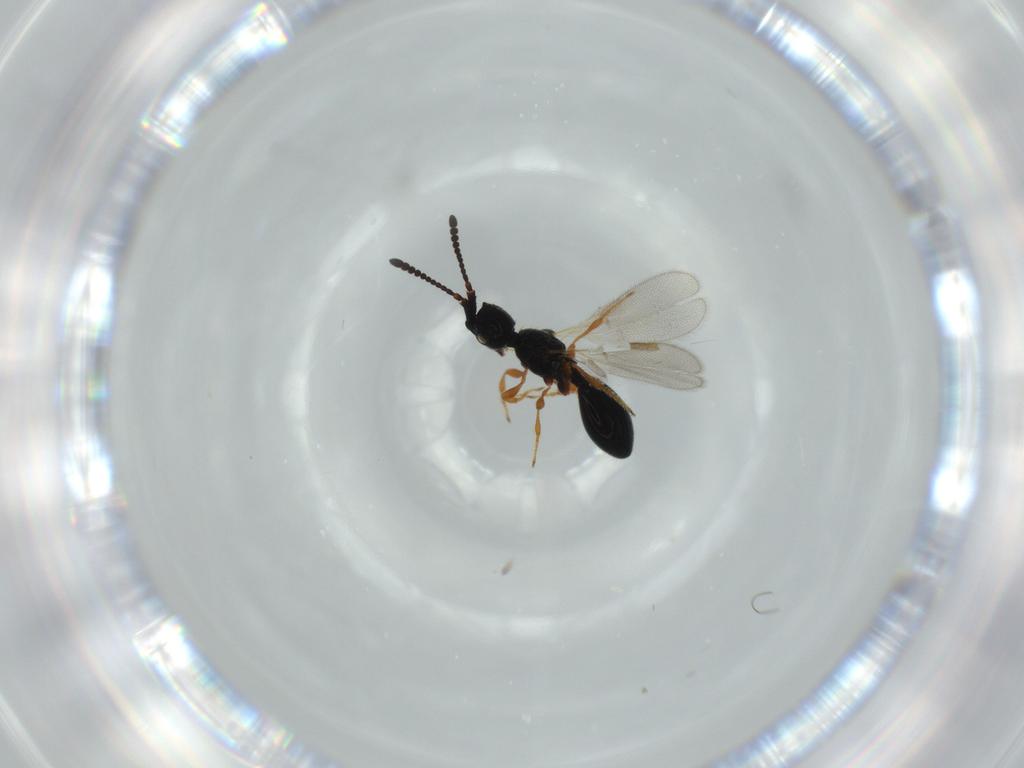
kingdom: Animalia
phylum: Arthropoda
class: Insecta
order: Hymenoptera
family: Diapriidae
